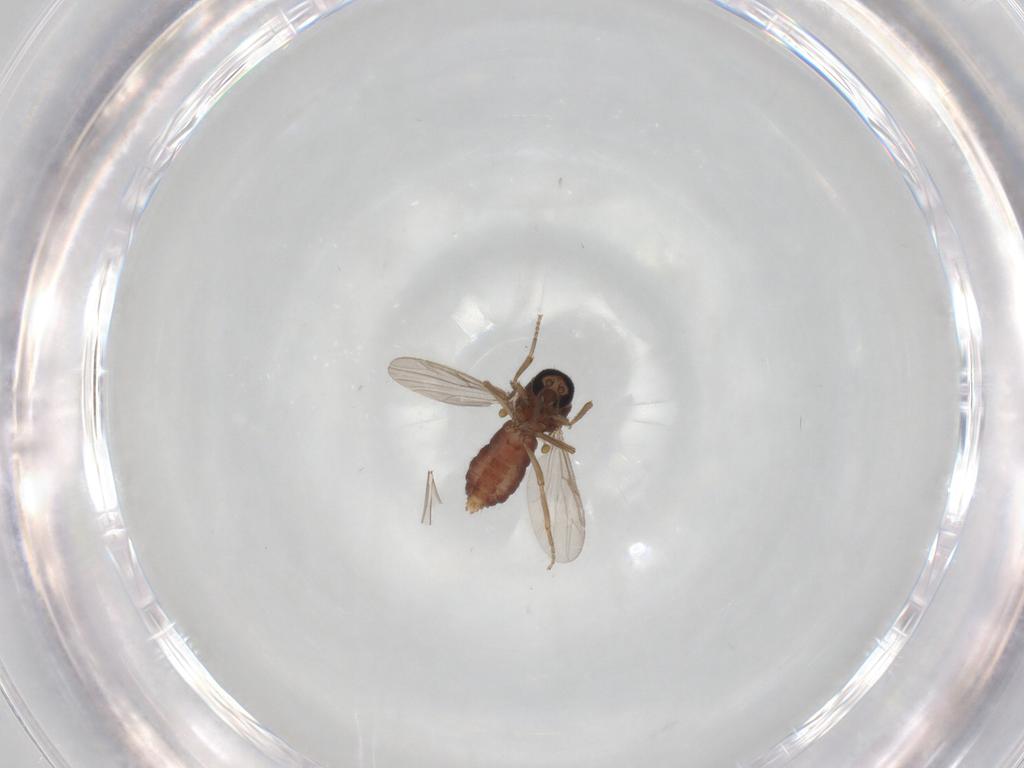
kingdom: Animalia
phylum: Arthropoda
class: Insecta
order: Diptera
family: Ceratopogonidae
